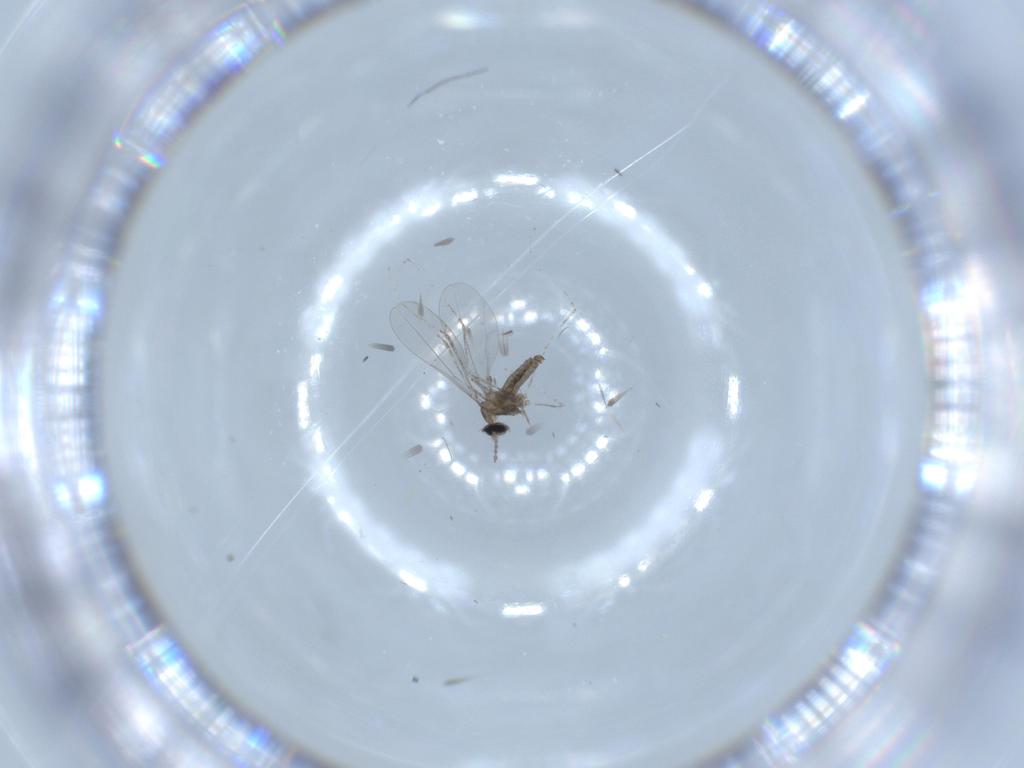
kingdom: Animalia
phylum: Arthropoda
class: Insecta
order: Diptera
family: Cecidomyiidae
